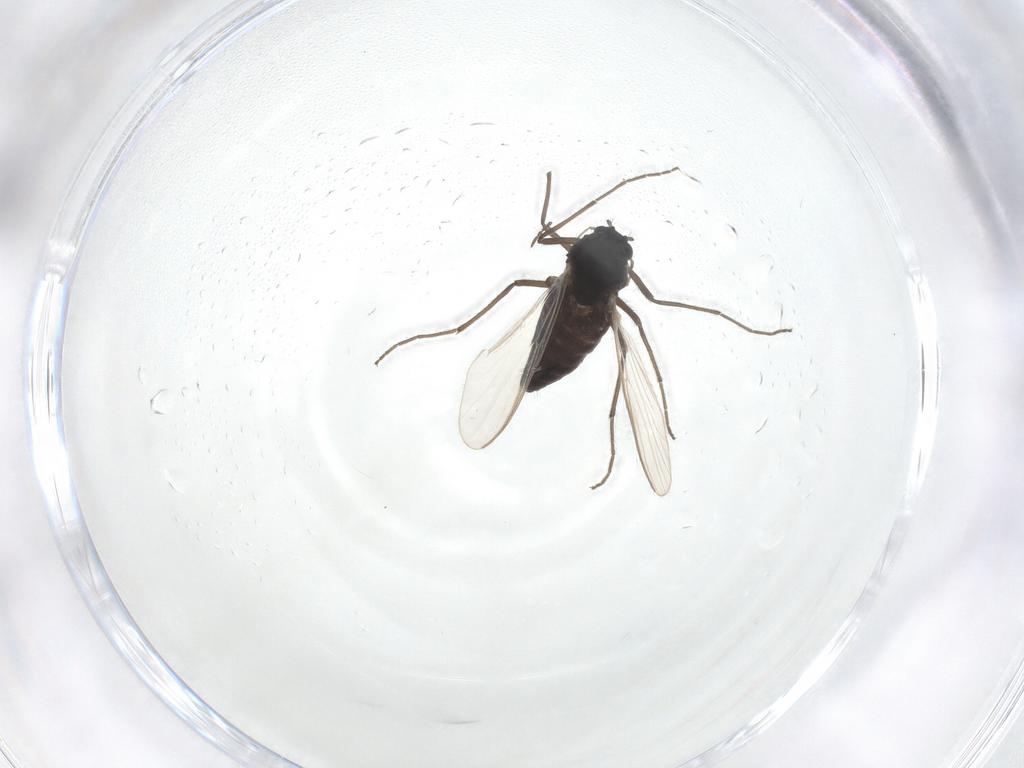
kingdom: Animalia
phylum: Arthropoda
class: Insecta
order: Diptera
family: Chironomidae
